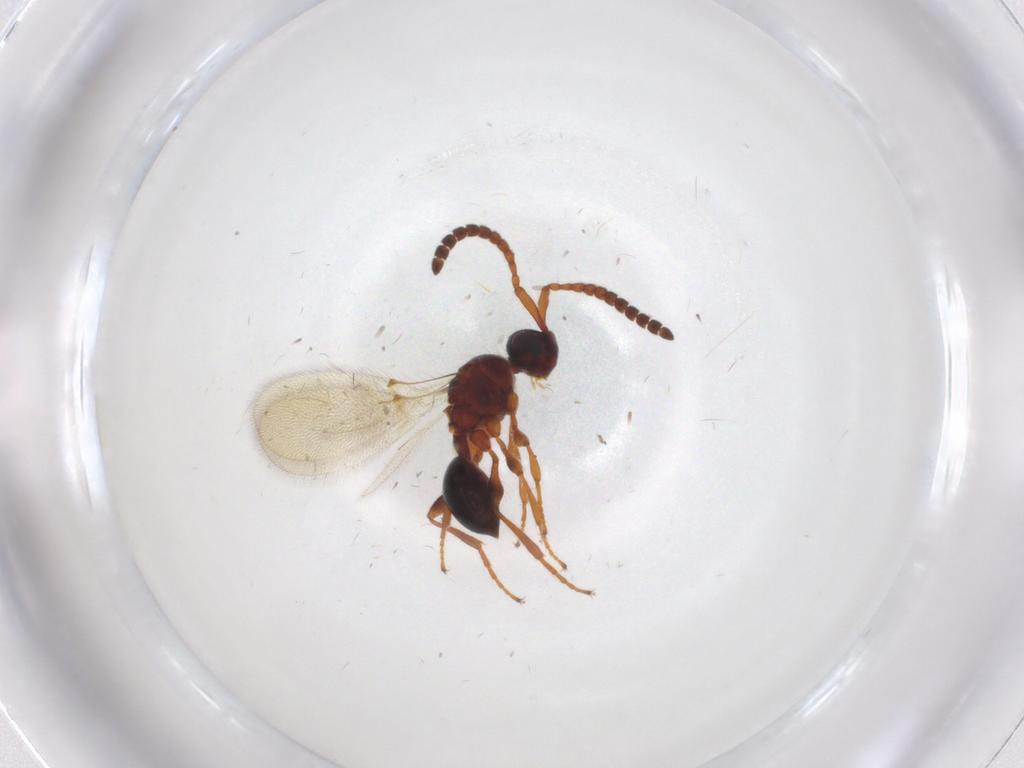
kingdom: Animalia
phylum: Arthropoda
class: Insecta
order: Hymenoptera
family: Diapriidae
